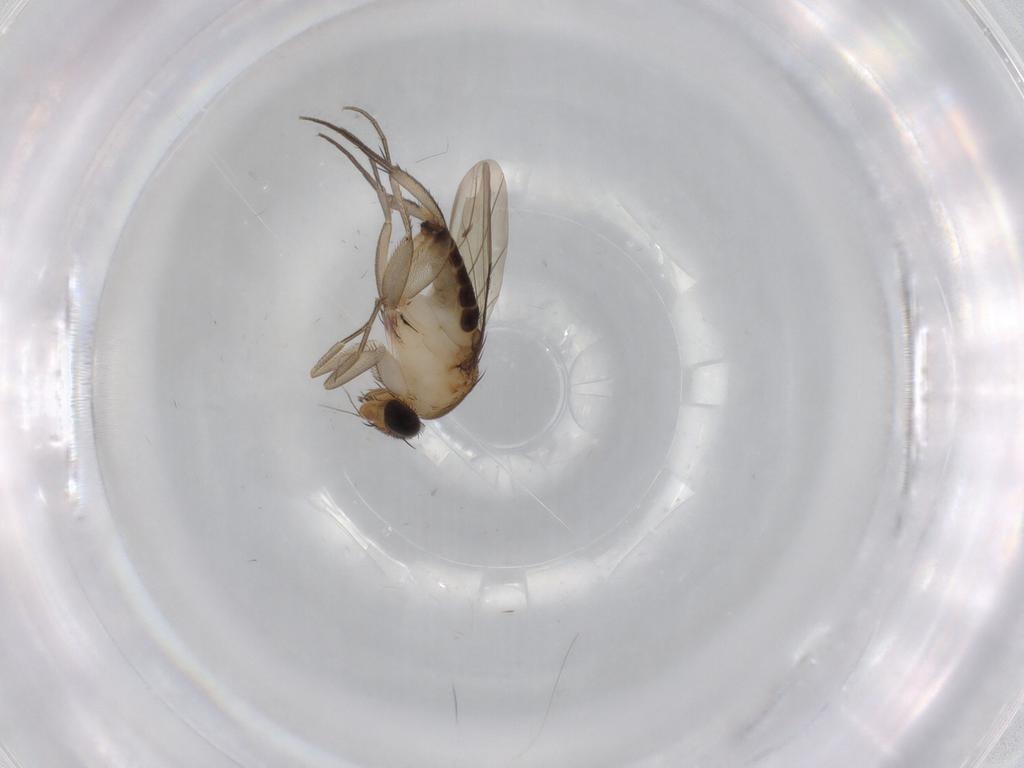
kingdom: Animalia
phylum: Arthropoda
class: Insecta
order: Diptera
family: Phoridae
